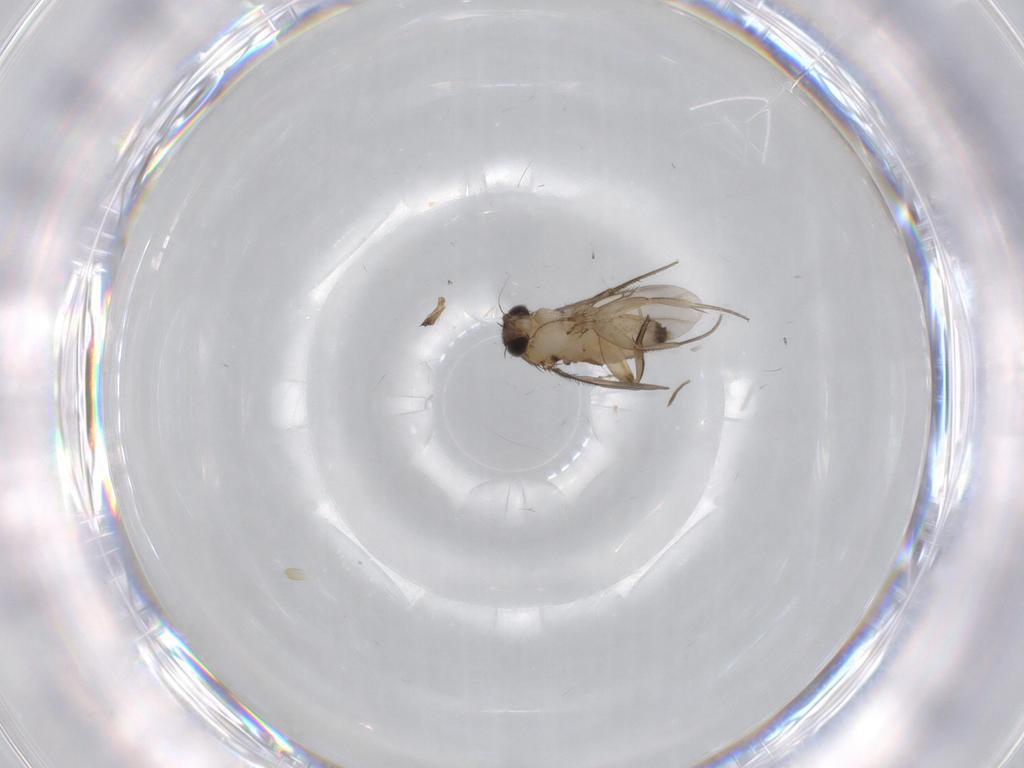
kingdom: Animalia
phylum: Arthropoda
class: Insecta
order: Diptera
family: Phoridae
